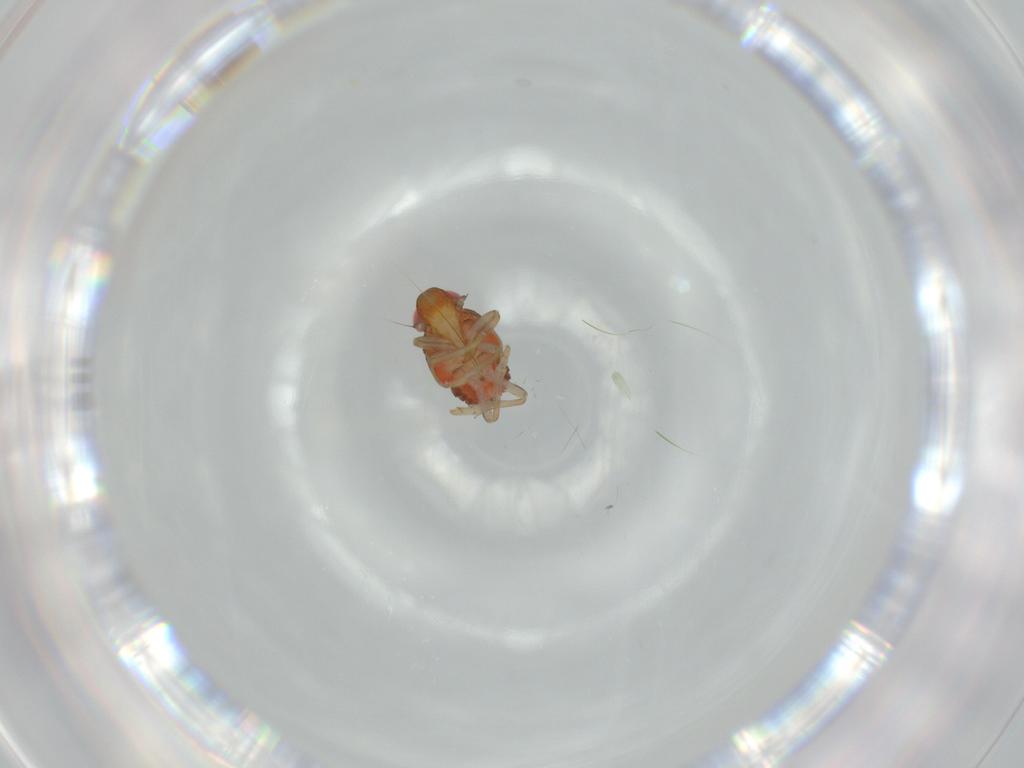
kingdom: Animalia
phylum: Arthropoda
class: Insecta
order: Hemiptera
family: Issidae
